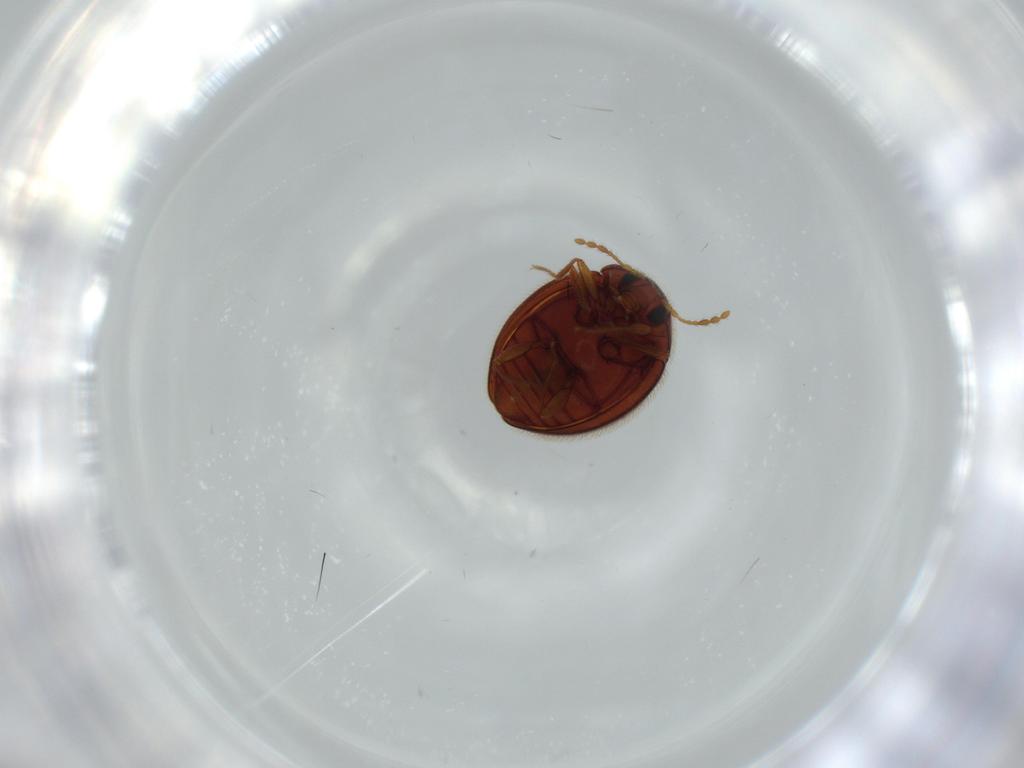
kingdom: Animalia
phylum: Arthropoda
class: Insecta
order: Coleoptera
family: Anamorphidae
